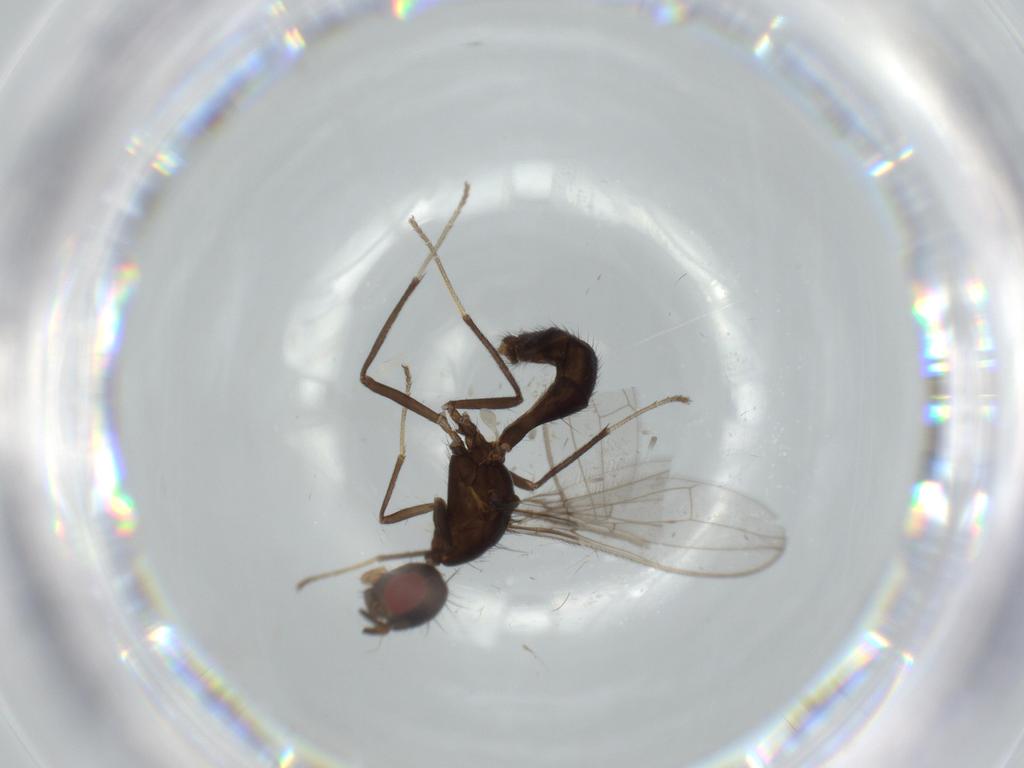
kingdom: Animalia
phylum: Arthropoda
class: Insecta
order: Diptera
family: Richardiidae
